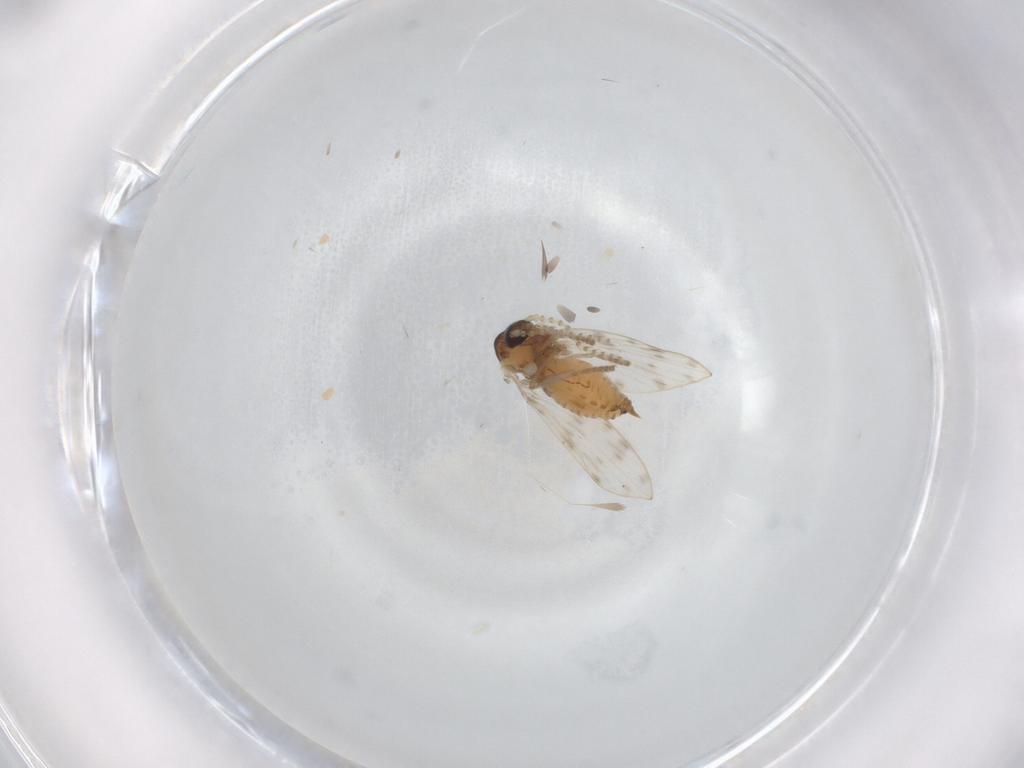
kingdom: Animalia
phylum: Arthropoda
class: Insecta
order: Diptera
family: Psychodidae
